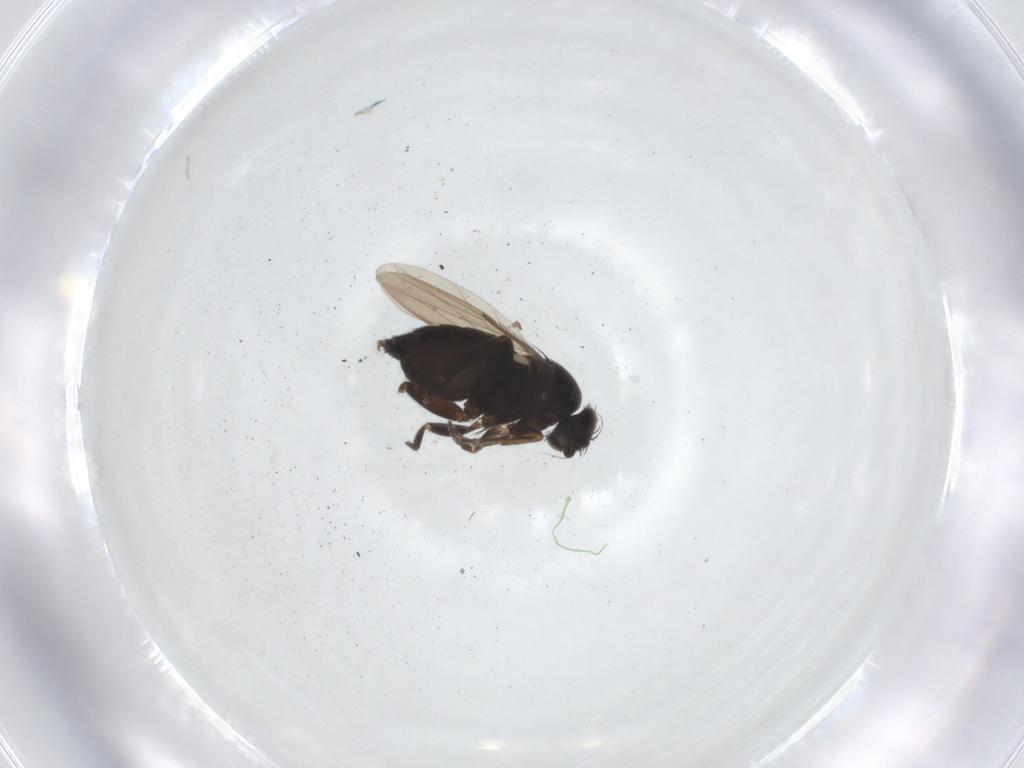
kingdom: Animalia
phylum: Arthropoda
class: Insecta
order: Diptera
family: Phoridae
